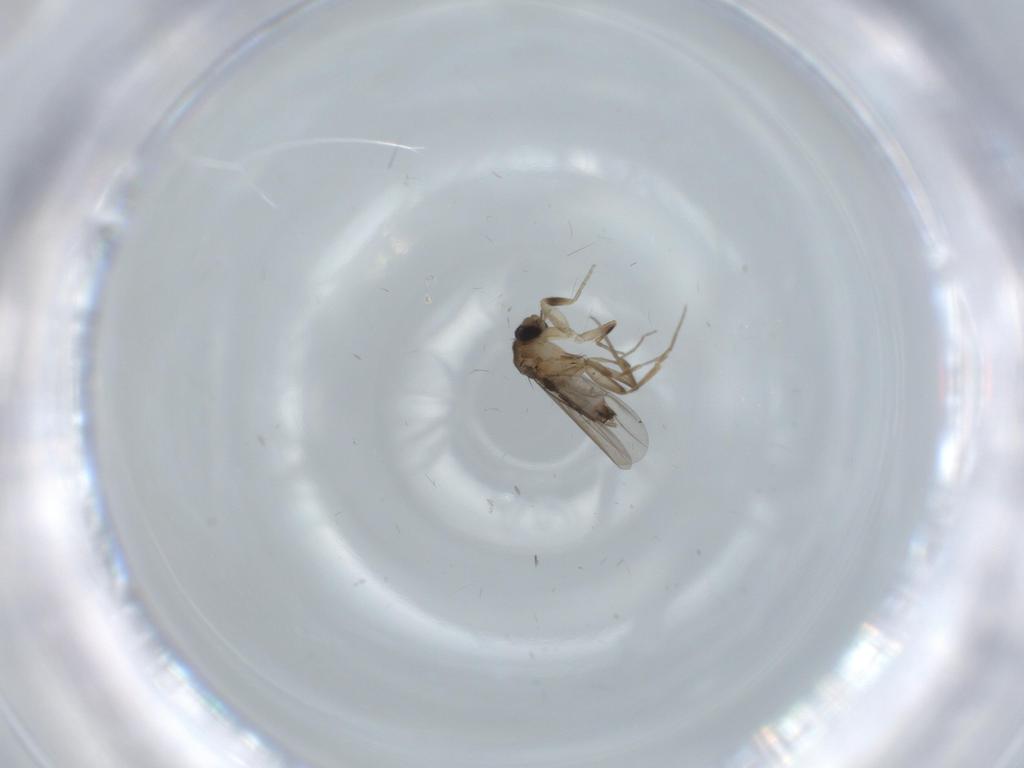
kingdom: Animalia
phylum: Arthropoda
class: Insecta
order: Diptera
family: Phoridae
